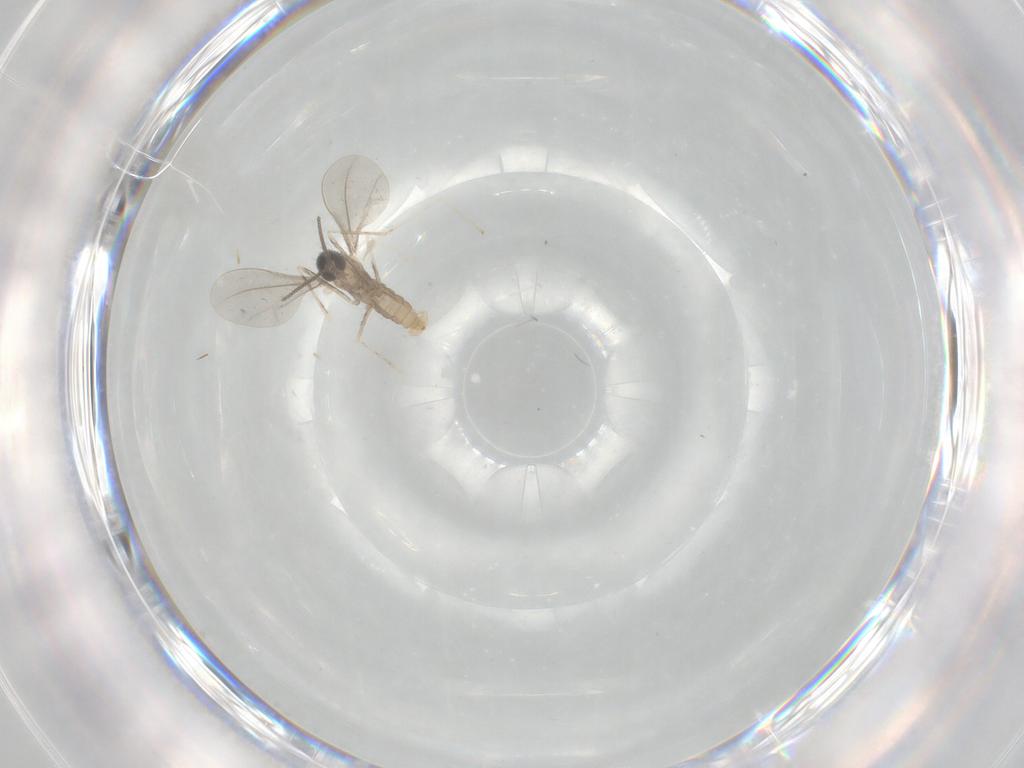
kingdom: Animalia
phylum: Arthropoda
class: Insecta
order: Diptera
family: Cecidomyiidae
